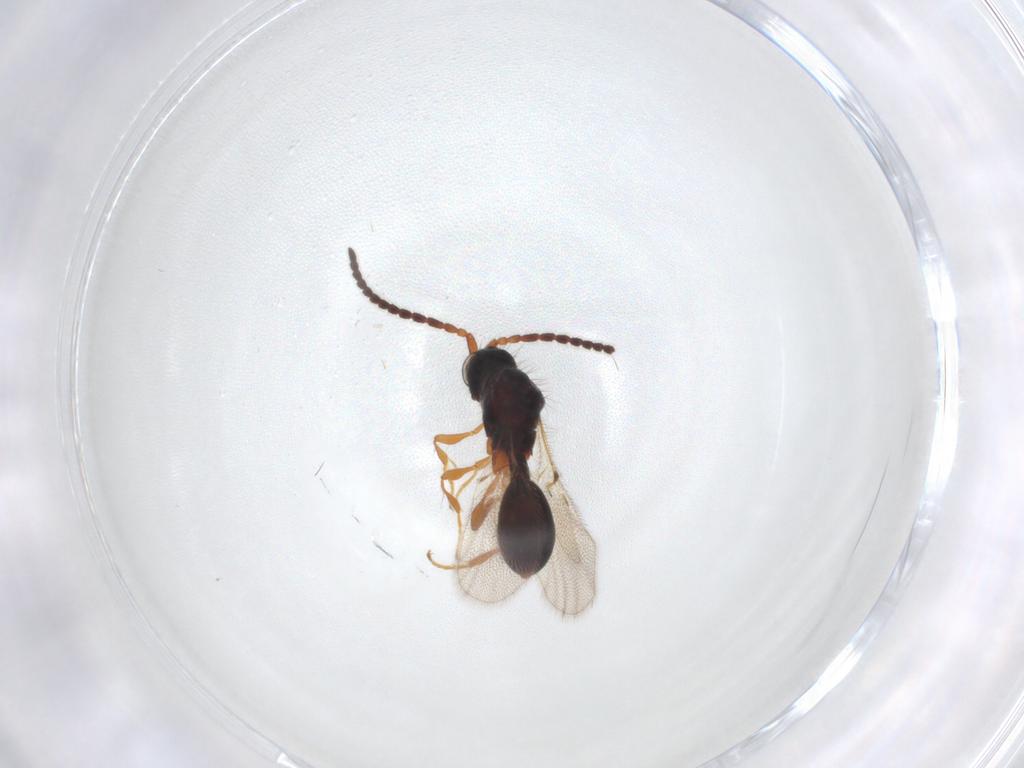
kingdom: Animalia
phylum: Arthropoda
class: Insecta
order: Hymenoptera
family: Diapriidae
